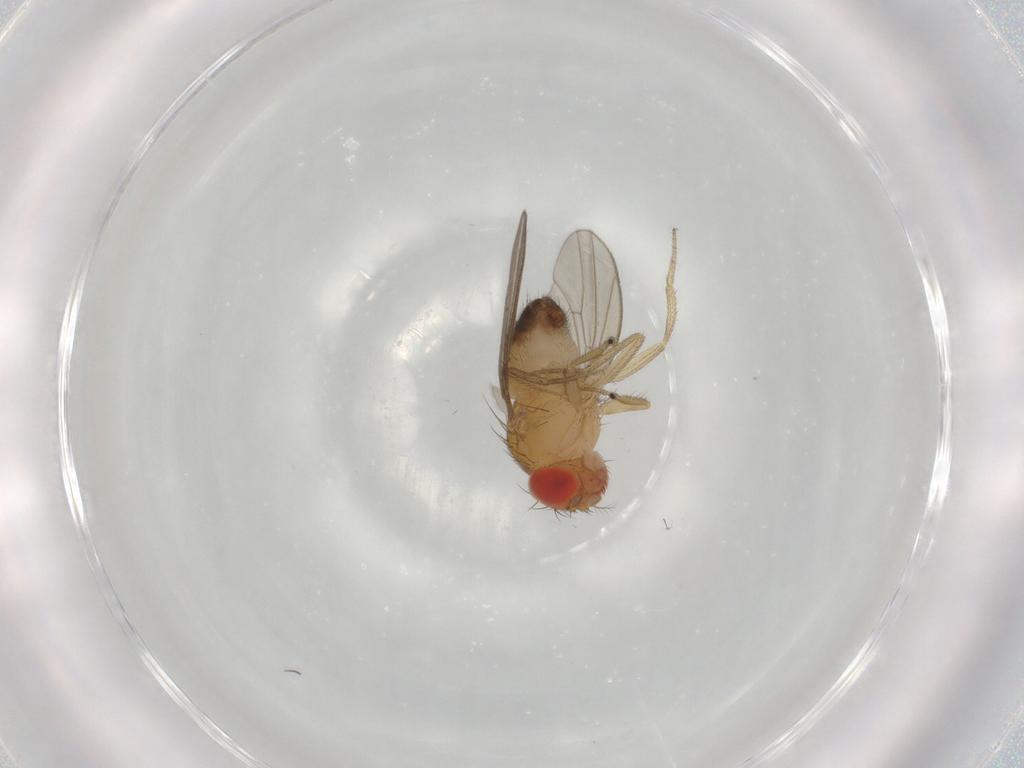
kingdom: Animalia
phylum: Arthropoda
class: Insecta
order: Diptera
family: Drosophilidae
